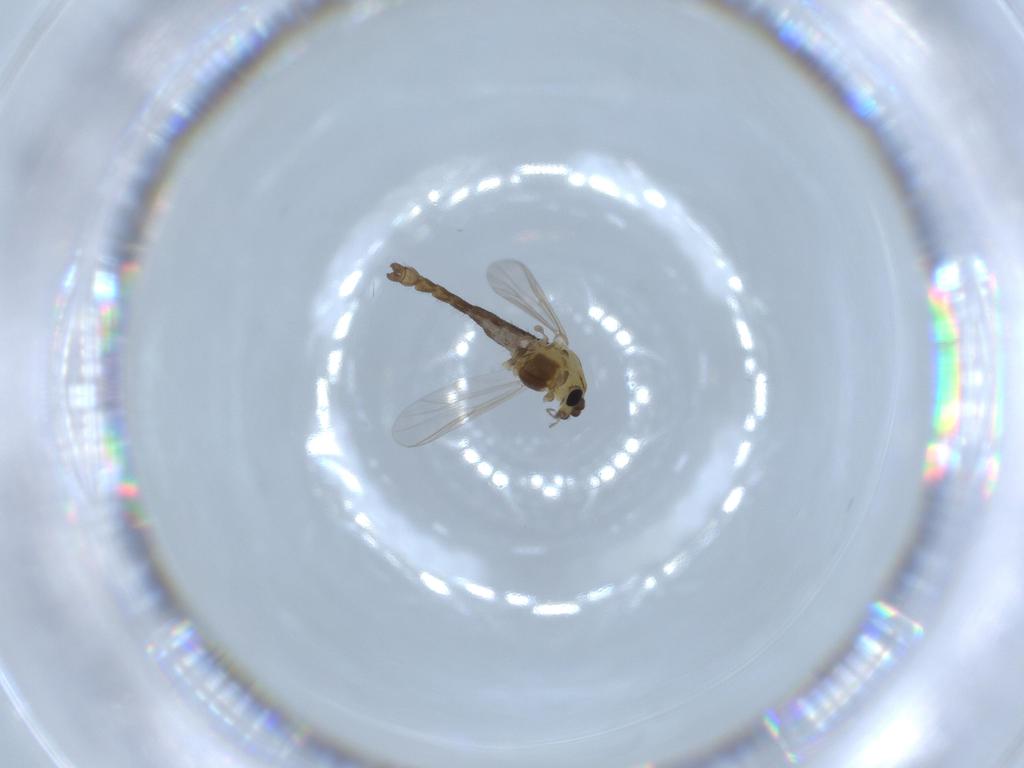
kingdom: Animalia
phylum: Arthropoda
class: Insecta
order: Diptera
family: Chironomidae
